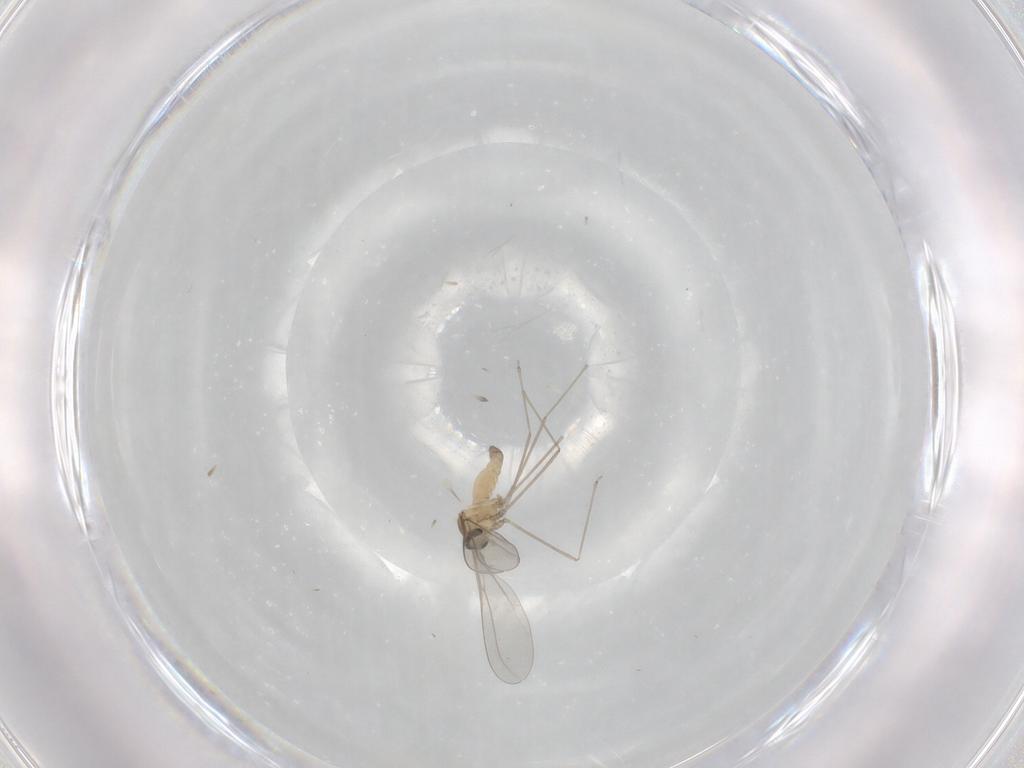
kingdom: Animalia
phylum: Arthropoda
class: Insecta
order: Diptera
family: Cecidomyiidae
